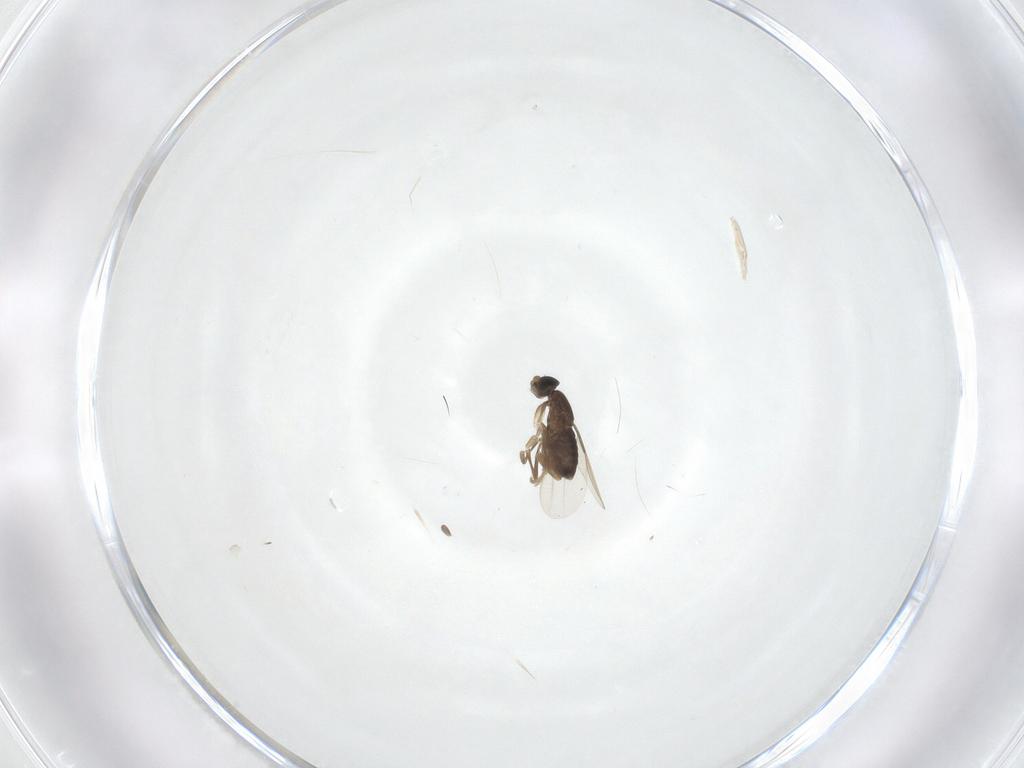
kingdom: Animalia
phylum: Arthropoda
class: Insecta
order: Diptera
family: Phoridae
